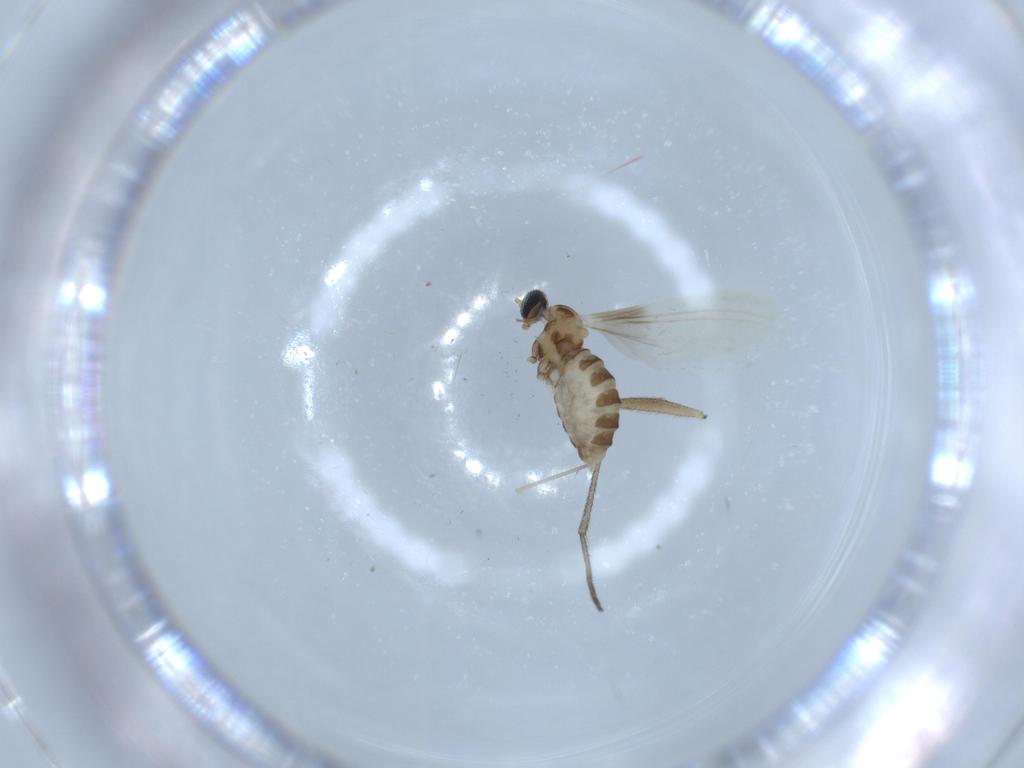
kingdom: Animalia
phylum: Arthropoda
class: Insecta
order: Diptera
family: Cecidomyiidae
